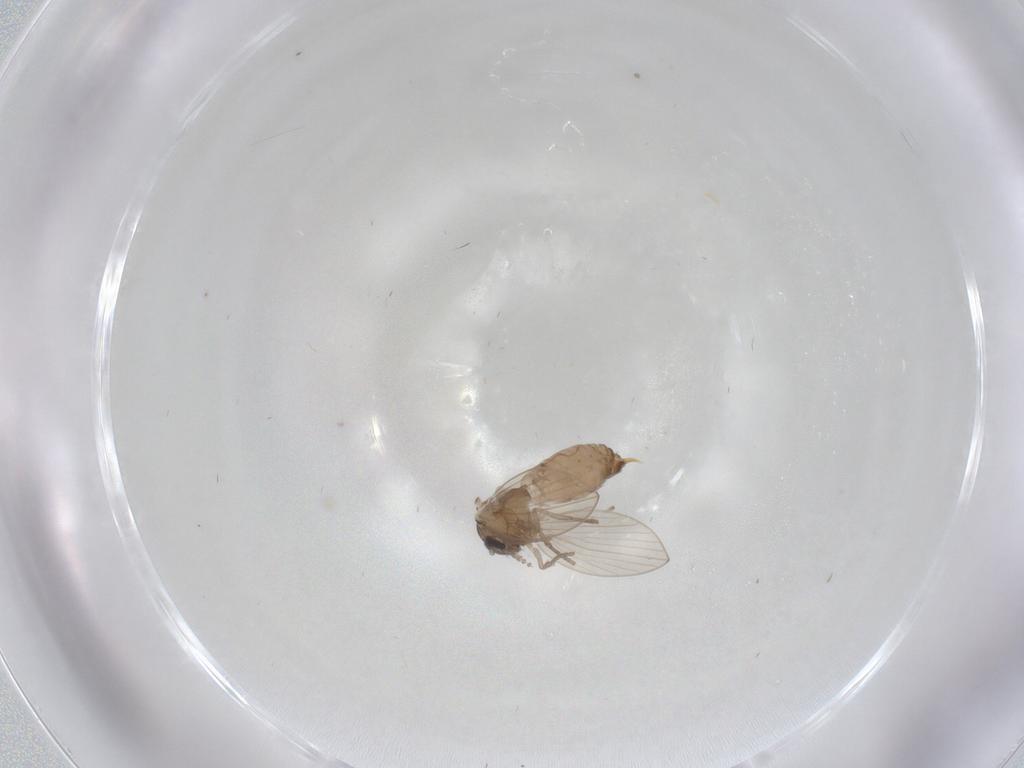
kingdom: Animalia
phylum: Arthropoda
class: Insecta
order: Diptera
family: Psychodidae
